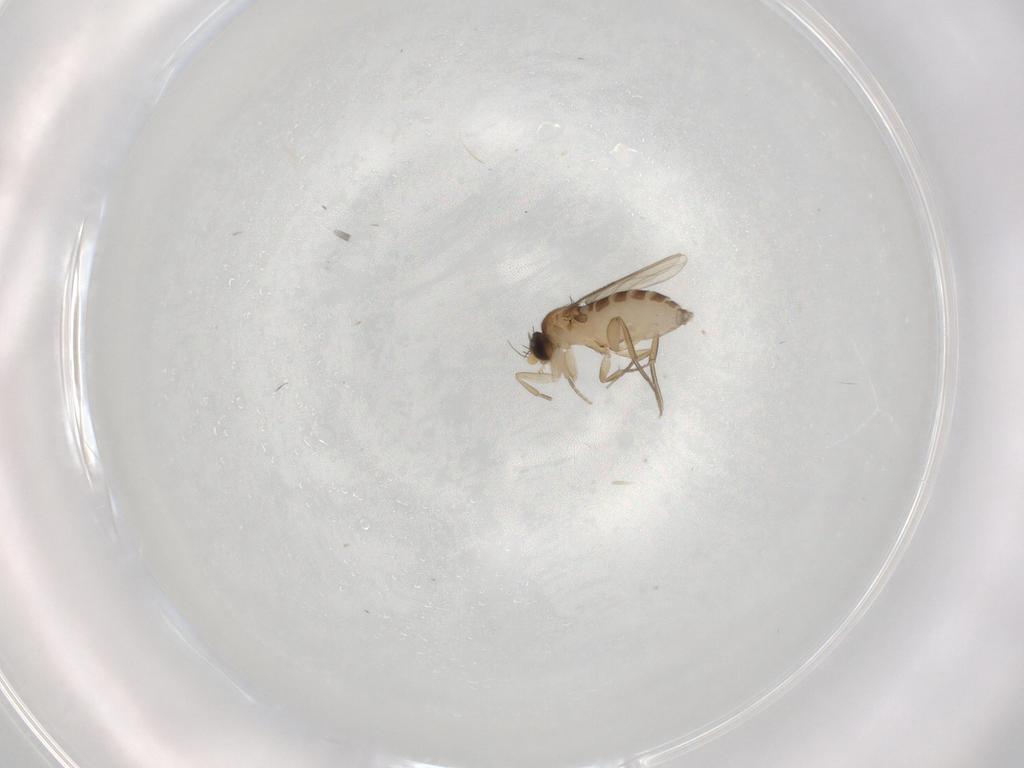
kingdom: Animalia
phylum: Arthropoda
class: Insecta
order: Diptera
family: Phoridae
